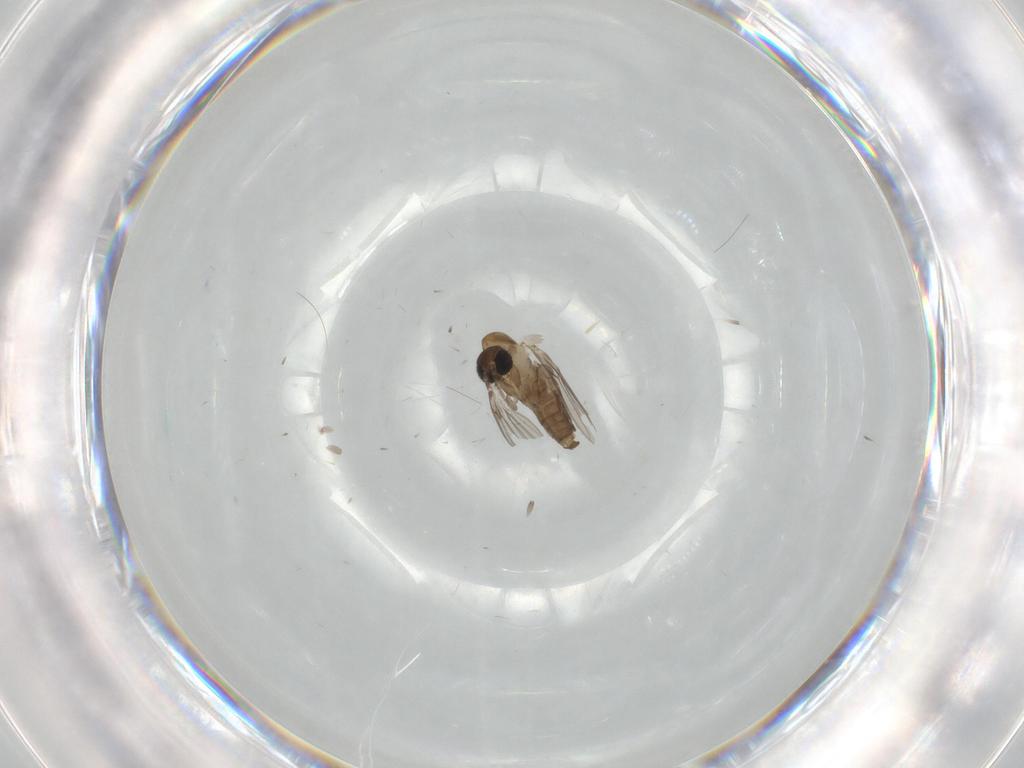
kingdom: Animalia
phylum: Arthropoda
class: Insecta
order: Diptera
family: Psychodidae
